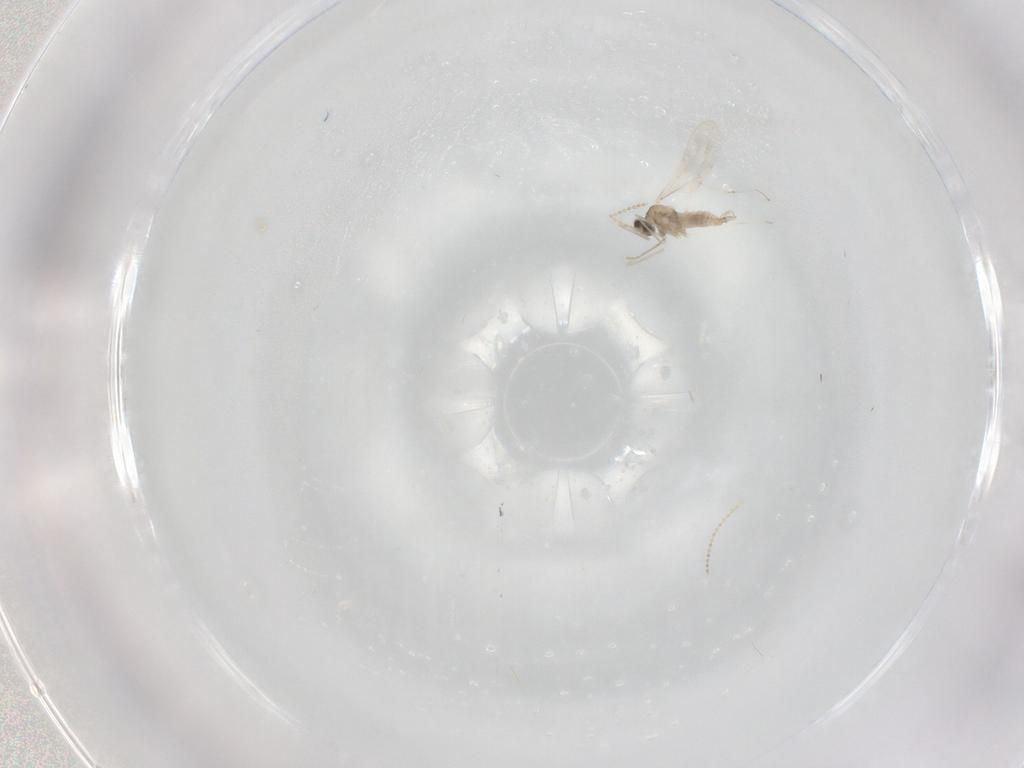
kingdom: Animalia
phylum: Arthropoda
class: Insecta
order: Diptera
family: Cecidomyiidae
